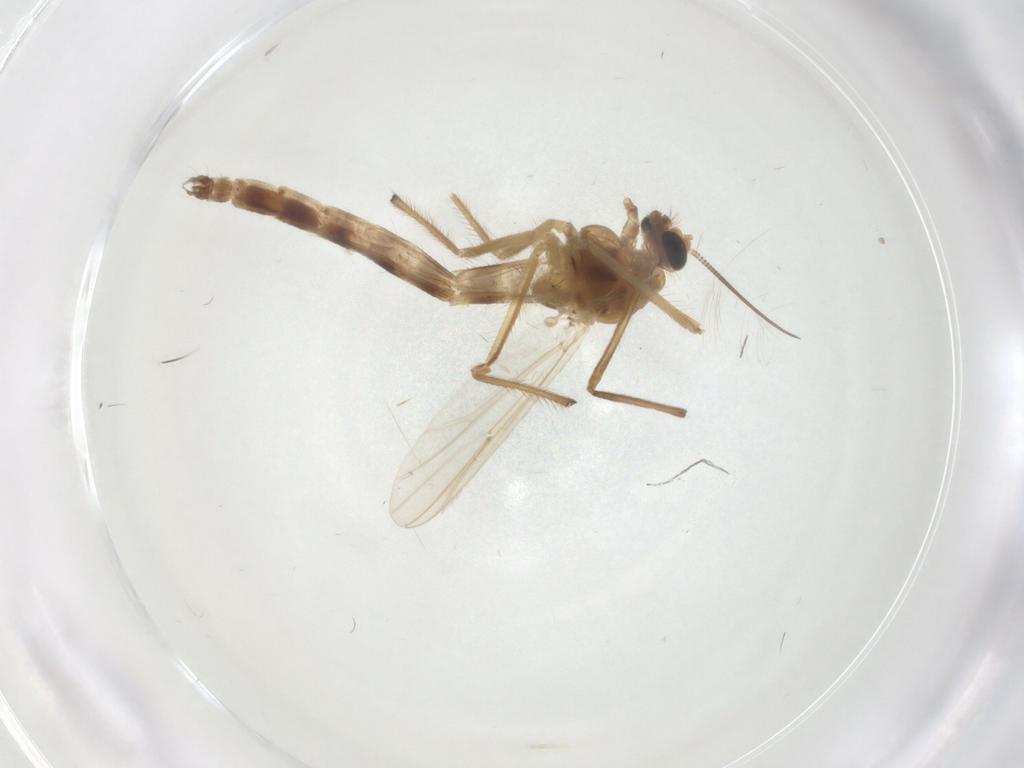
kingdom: Animalia
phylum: Arthropoda
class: Insecta
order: Diptera
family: Chironomidae
